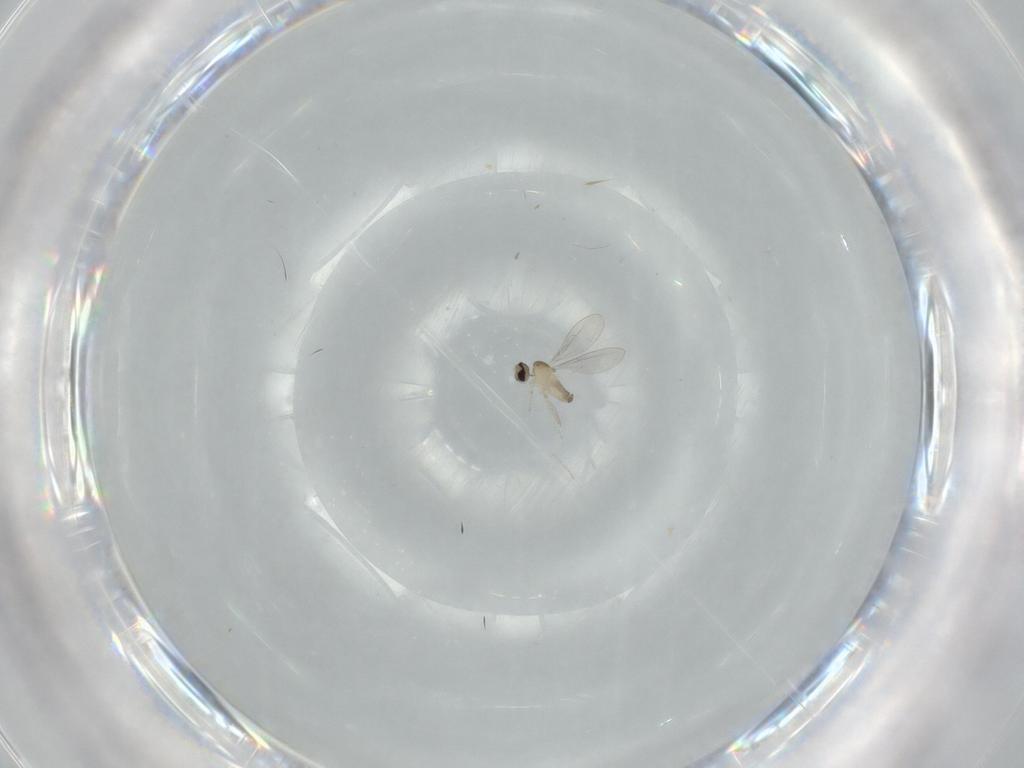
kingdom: Animalia
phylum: Arthropoda
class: Insecta
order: Diptera
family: Cecidomyiidae
